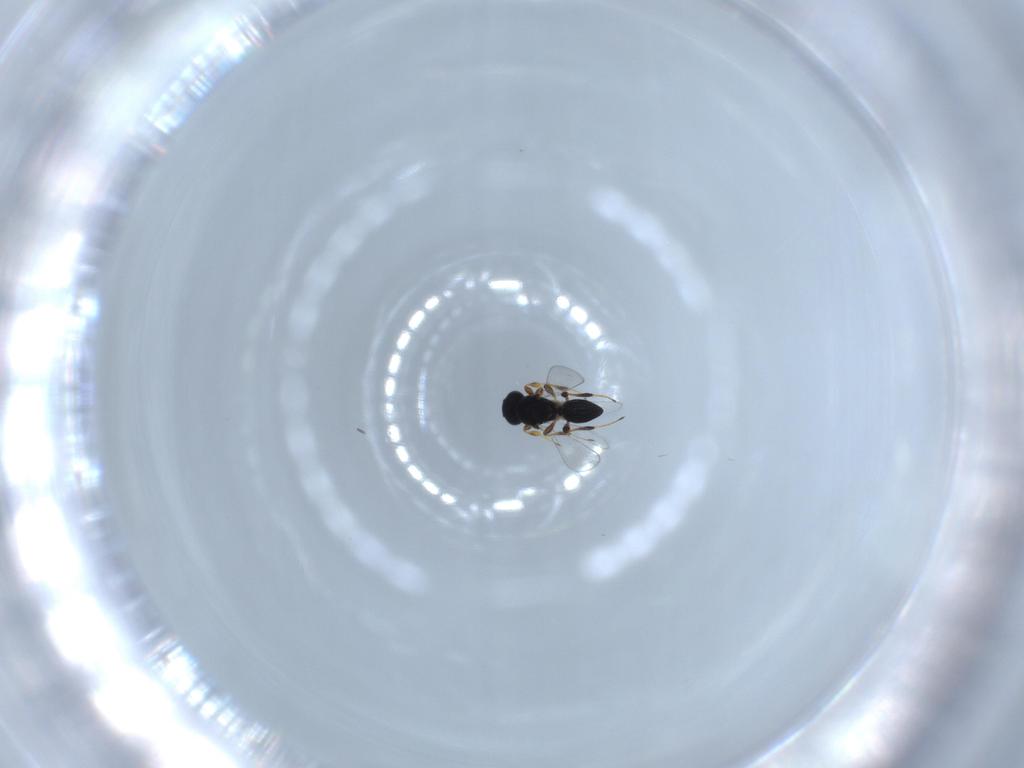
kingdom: Animalia
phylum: Arthropoda
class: Insecta
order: Hymenoptera
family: Platygastridae
